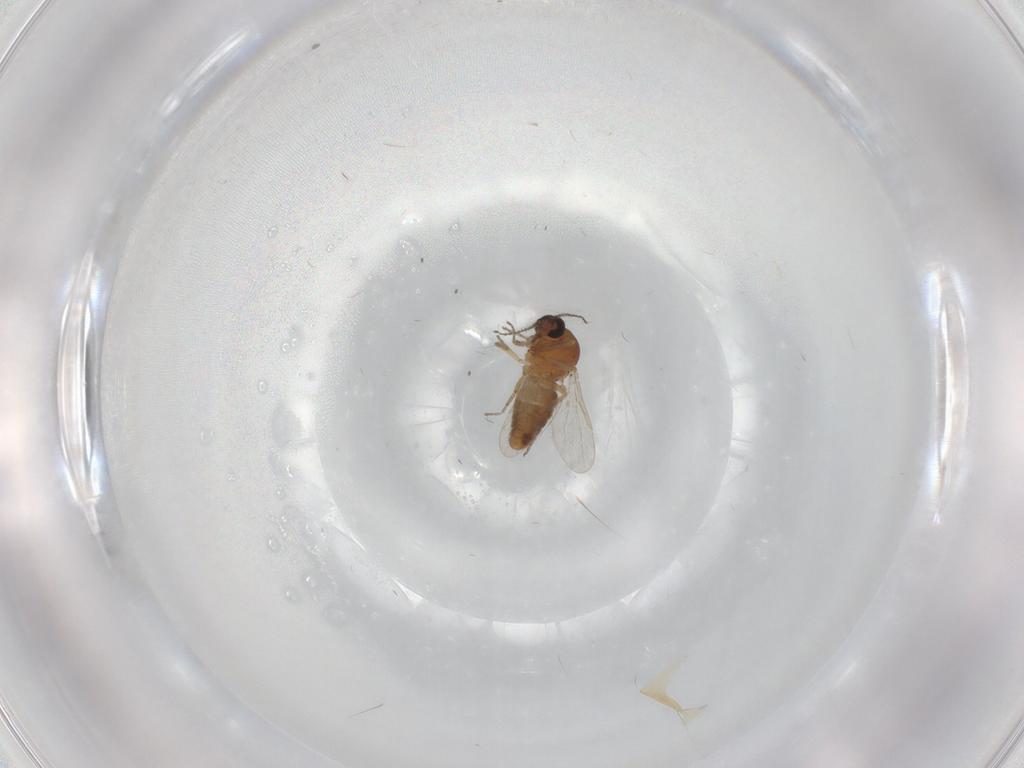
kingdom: Animalia
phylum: Arthropoda
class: Insecta
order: Diptera
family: Ceratopogonidae
